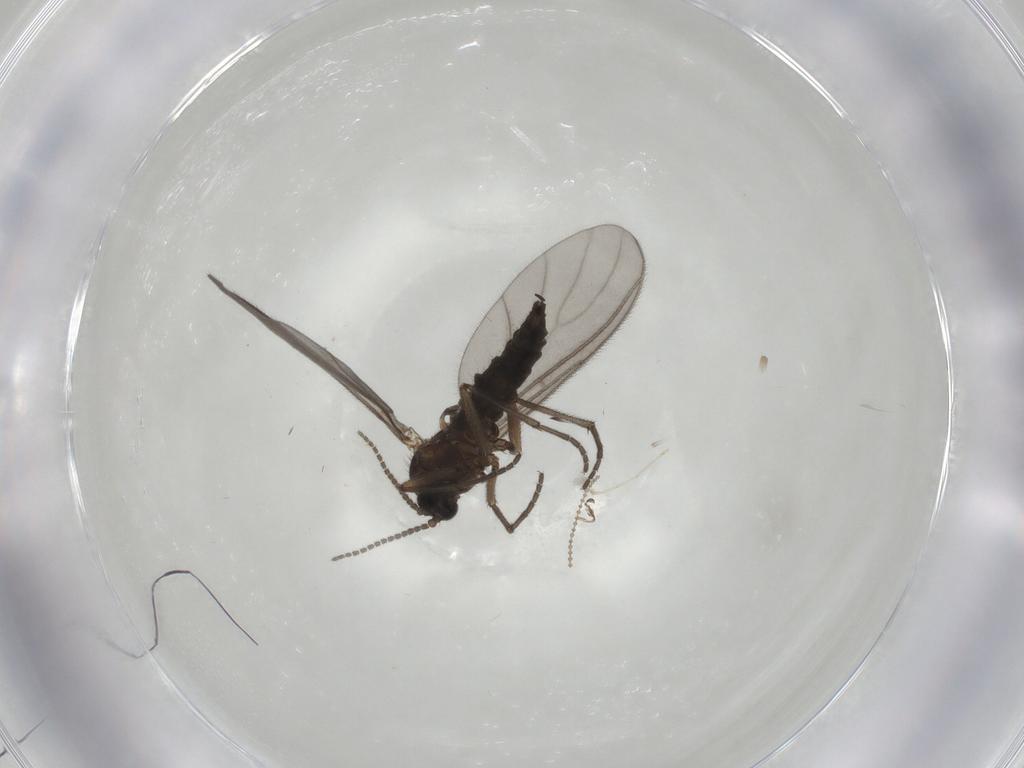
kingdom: Animalia
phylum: Arthropoda
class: Insecta
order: Diptera
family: Sciaridae
